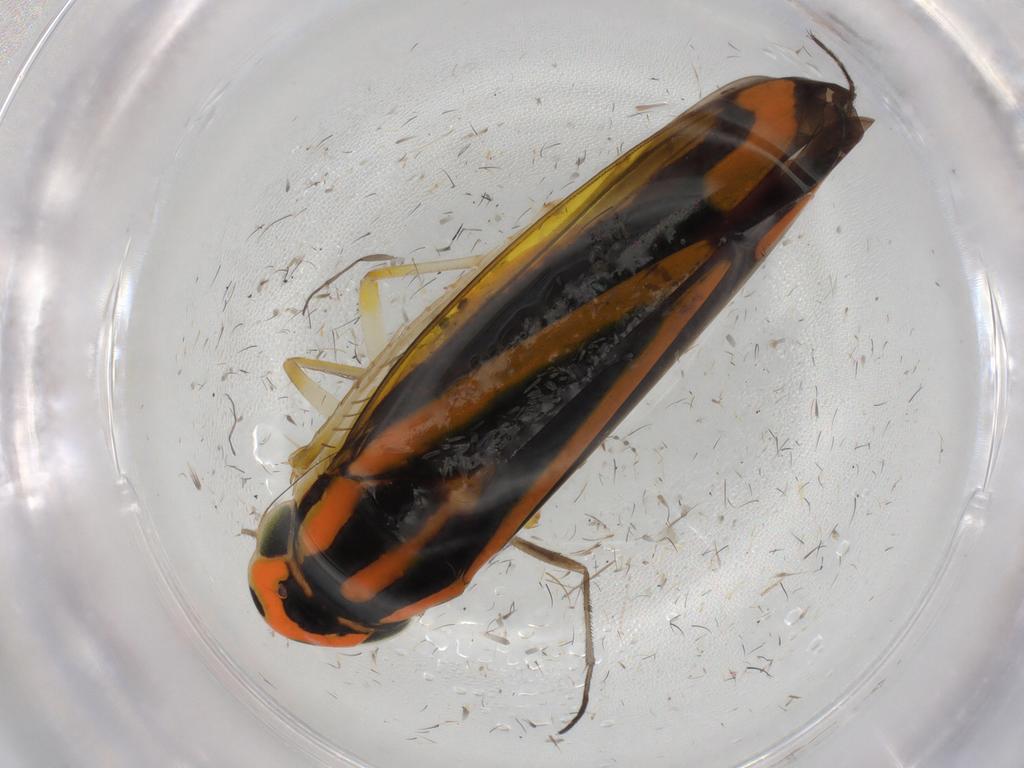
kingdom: Animalia
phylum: Arthropoda
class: Insecta
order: Hemiptera
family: Cicadellidae
